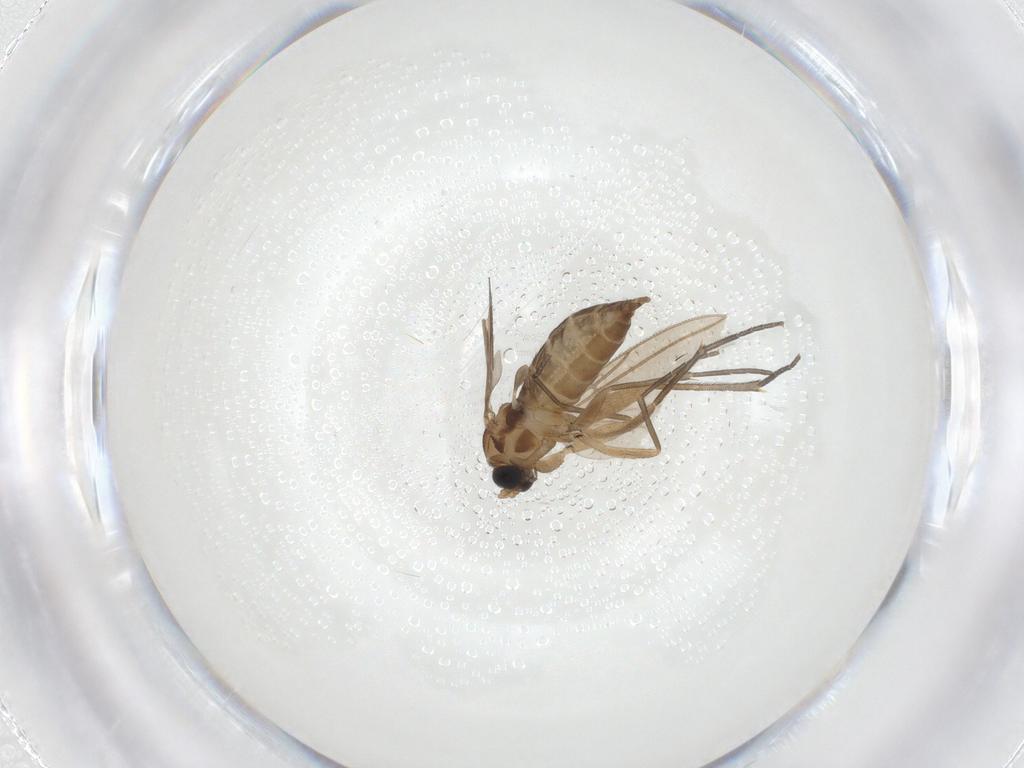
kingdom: Animalia
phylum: Arthropoda
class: Insecta
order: Diptera
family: Sciaridae
